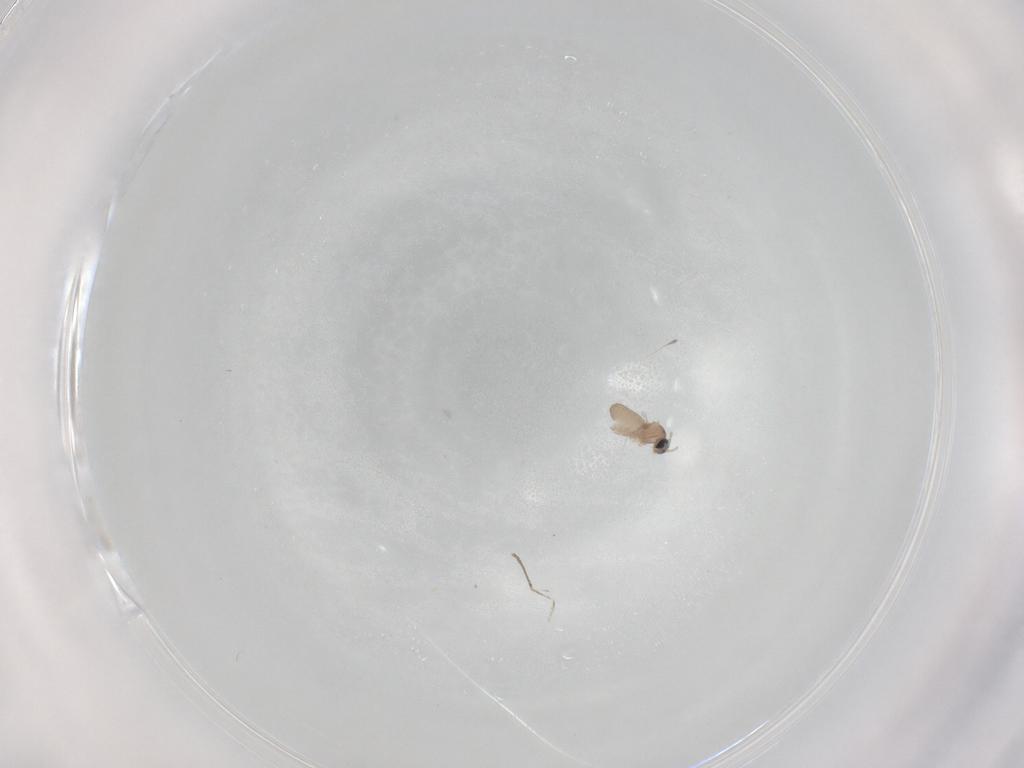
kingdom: Animalia
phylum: Arthropoda
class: Insecta
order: Diptera
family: Cecidomyiidae
